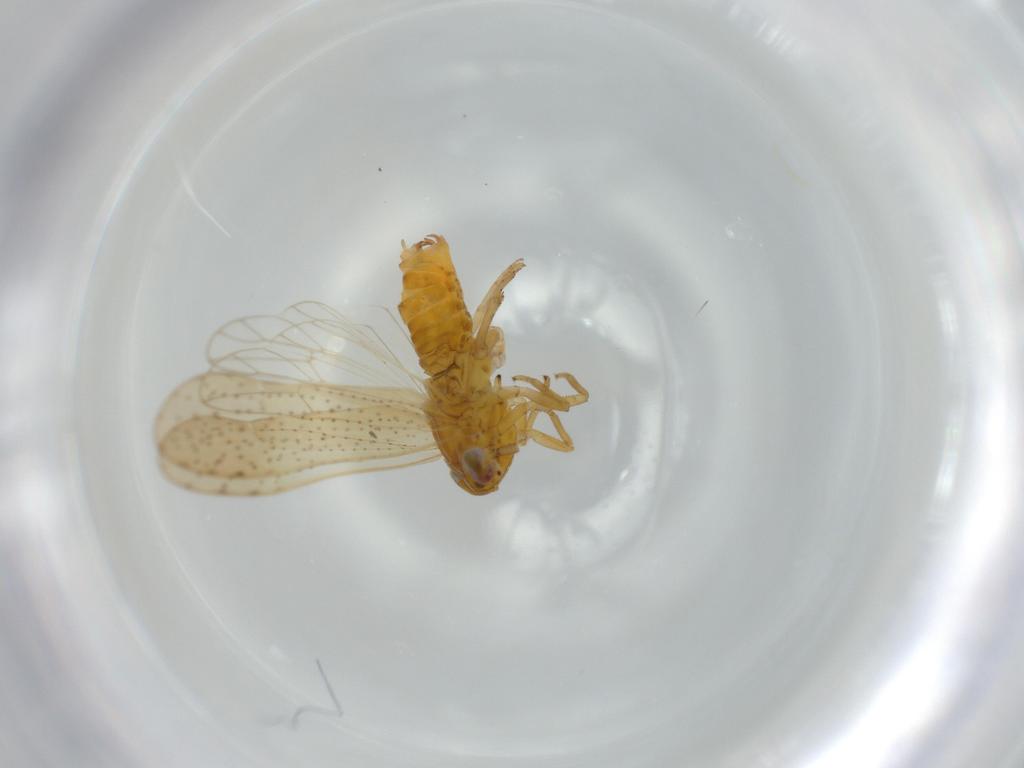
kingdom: Animalia
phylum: Arthropoda
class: Insecta
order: Hemiptera
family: Delphacidae
